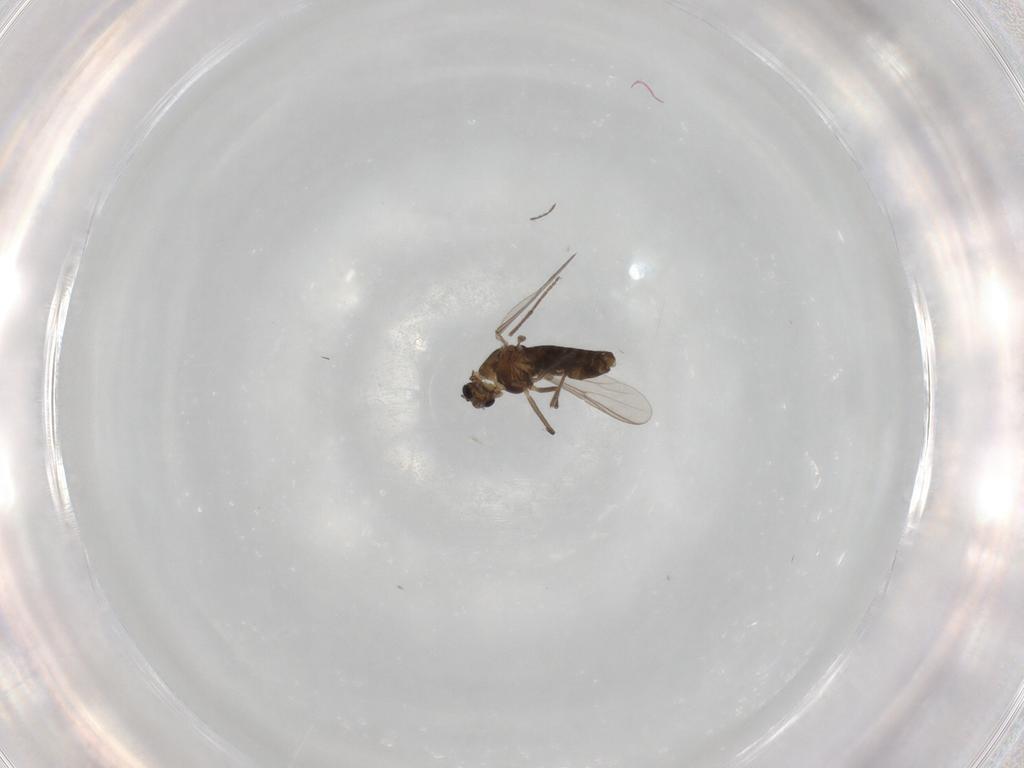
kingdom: Animalia
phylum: Arthropoda
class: Insecta
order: Diptera
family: Chironomidae
